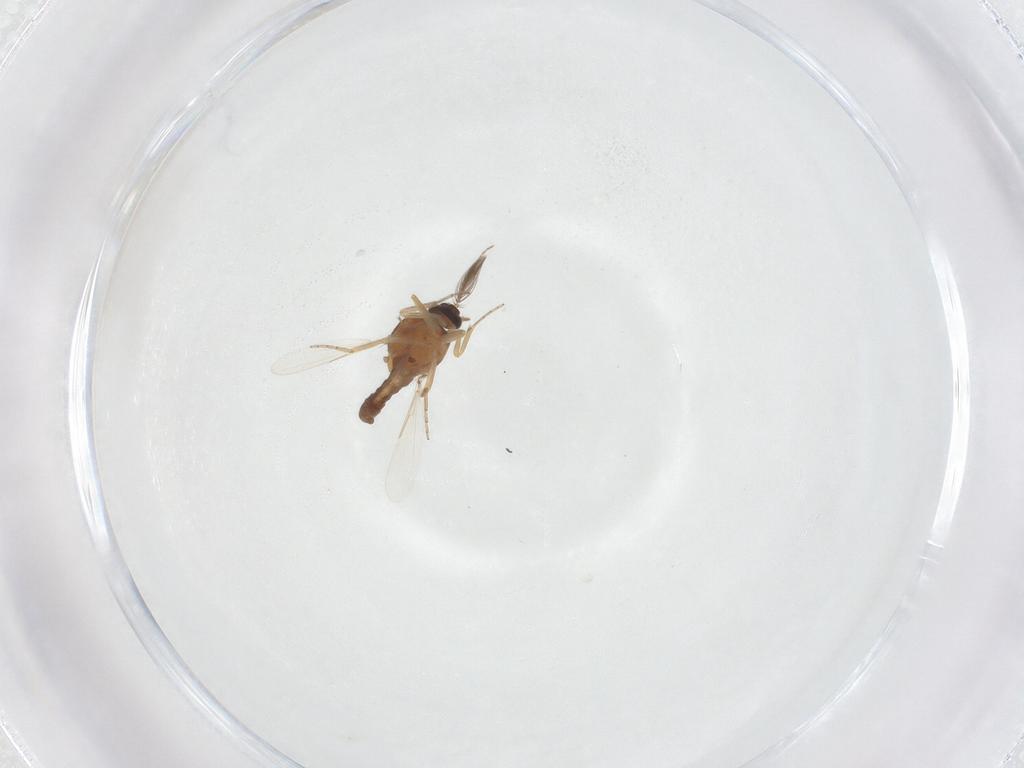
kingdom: Animalia
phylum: Arthropoda
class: Insecta
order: Diptera
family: Ceratopogonidae
